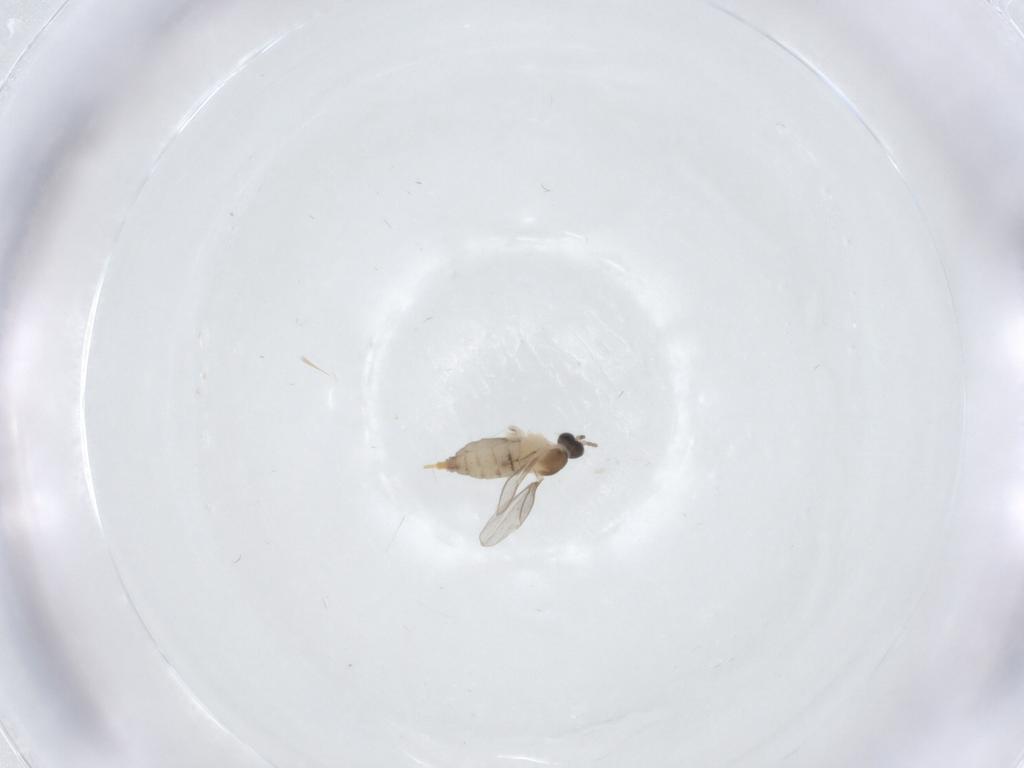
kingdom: Animalia
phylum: Arthropoda
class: Insecta
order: Diptera
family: Cecidomyiidae
